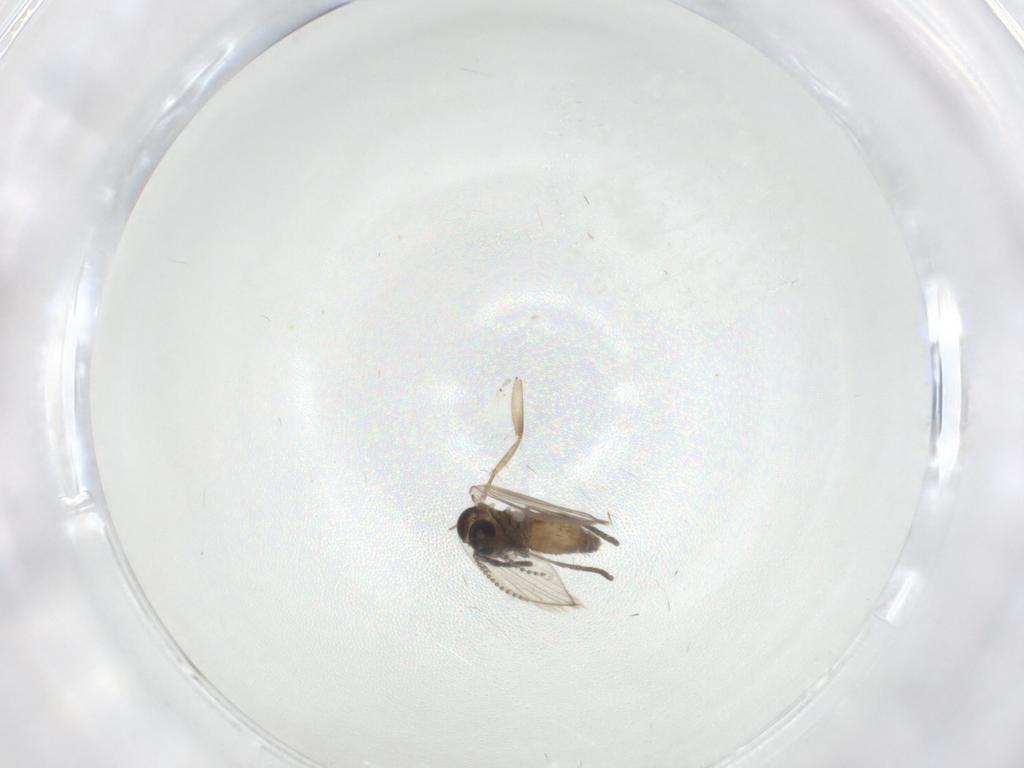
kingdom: Animalia
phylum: Arthropoda
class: Insecta
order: Diptera
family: Psychodidae
